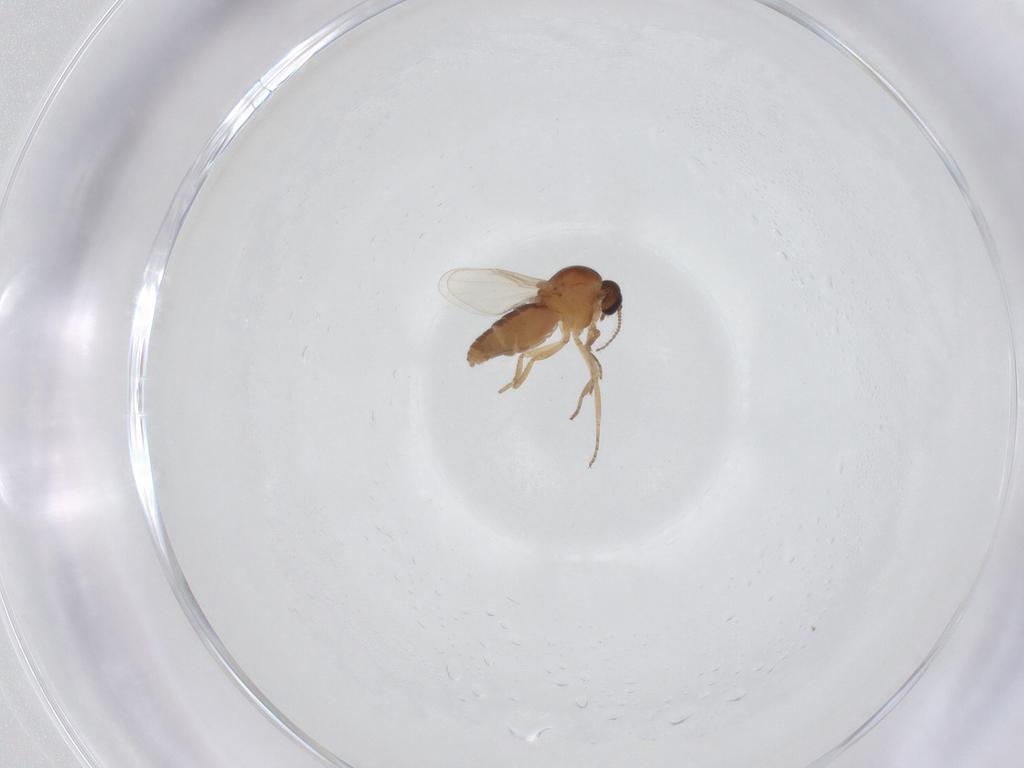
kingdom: Animalia
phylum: Arthropoda
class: Insecta
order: Diptera
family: Ceratopogonidae
